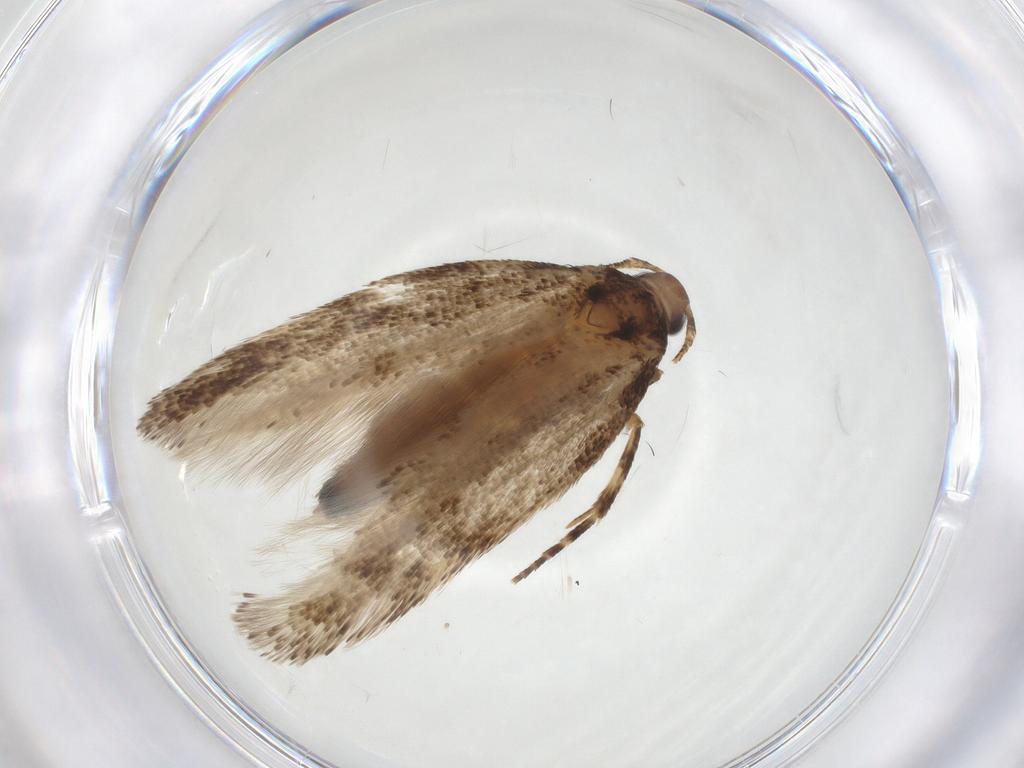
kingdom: Animalia
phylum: Arthropoda
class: Insecta
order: Lepidoptera
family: Gelechiidae
